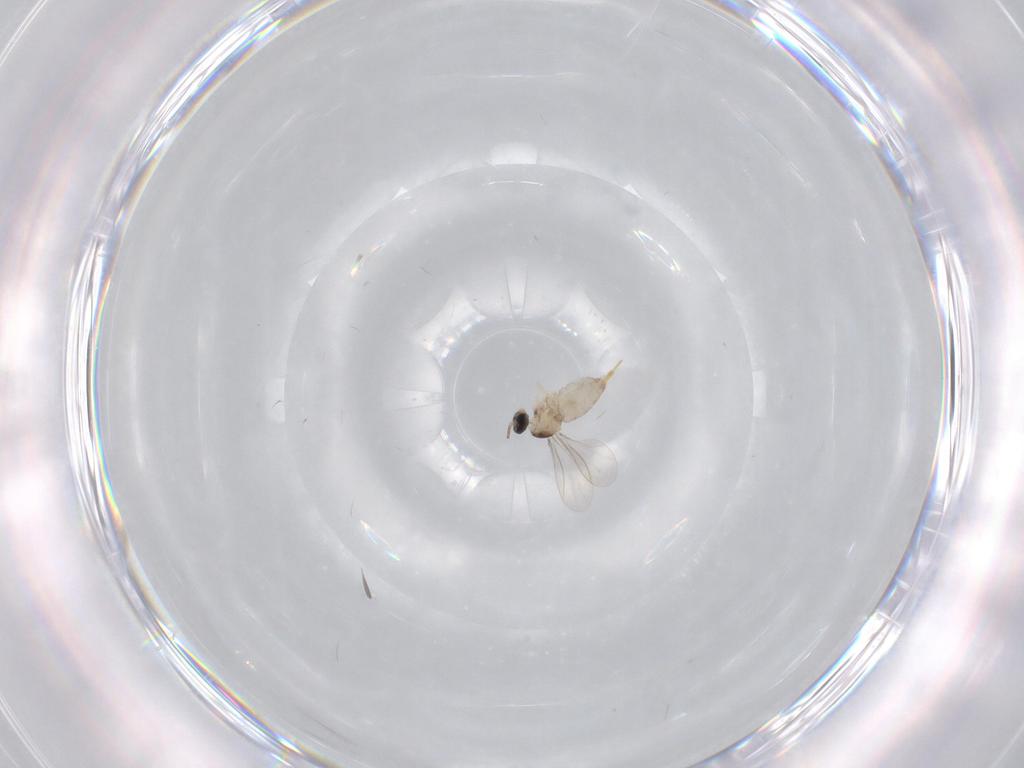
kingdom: Animalia
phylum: Arthropoda
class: Insecta
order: Diptera
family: Cecidomyiidae
